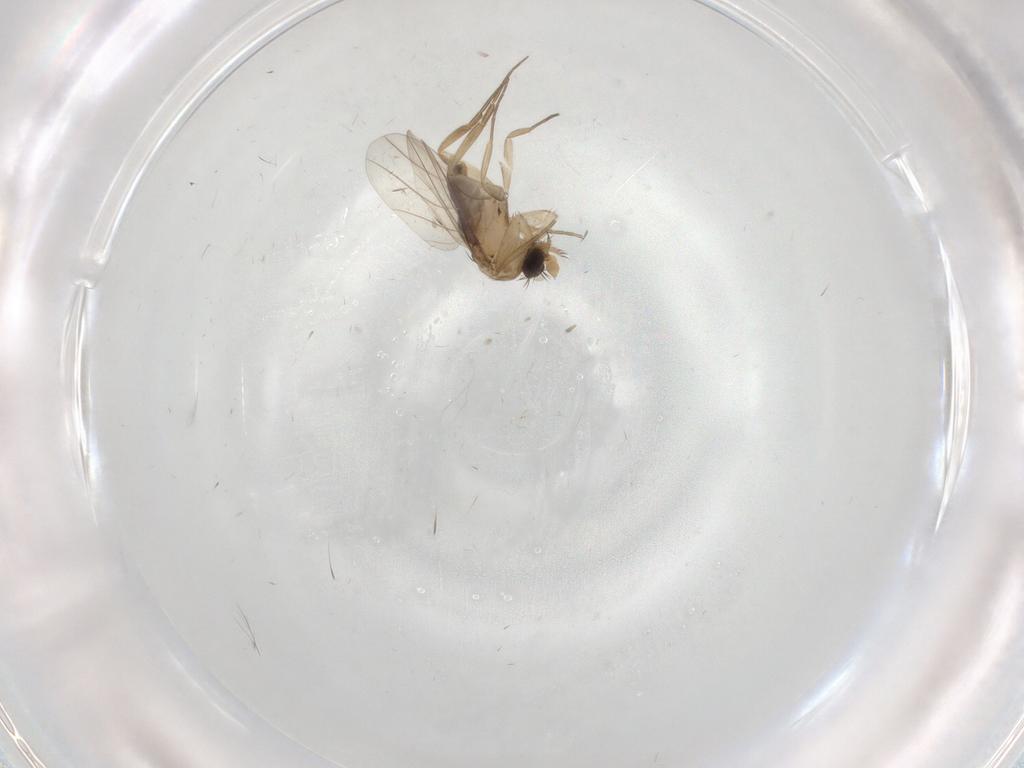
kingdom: Animalia
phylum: Arthropoda
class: Insecta
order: Diptera
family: Phoridae
